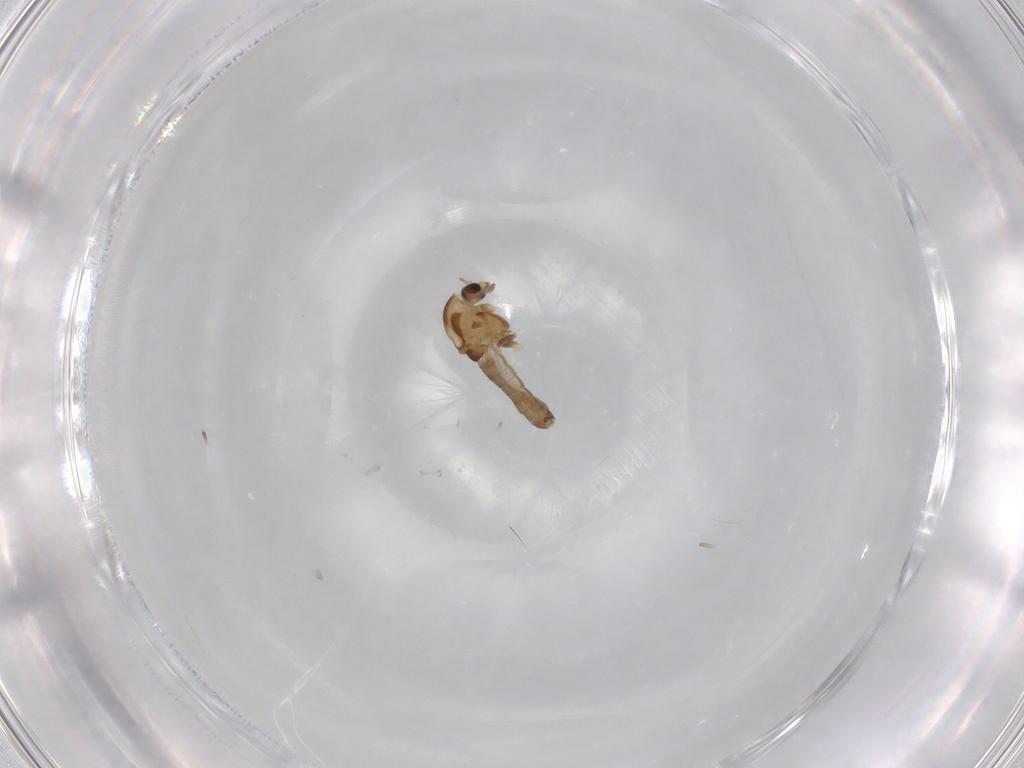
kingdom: Animalia
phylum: Arthropoda
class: Insecta
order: Diptera
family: Chironomidae
